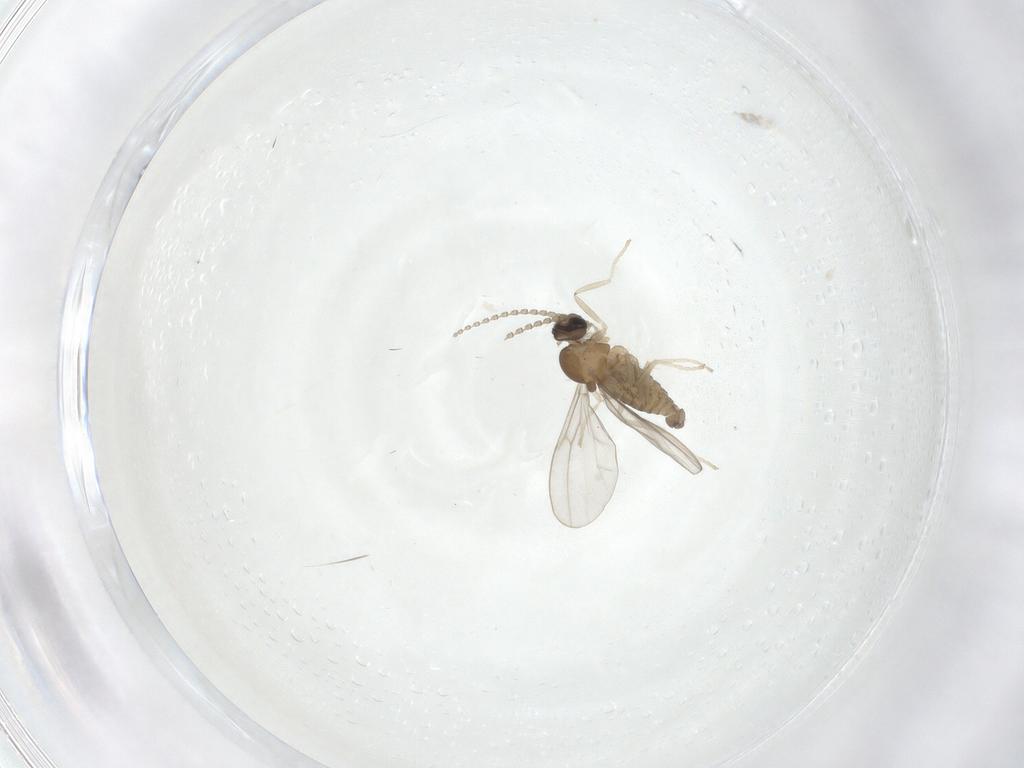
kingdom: Animalia
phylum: Arthropoda
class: Insecta
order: Diptera
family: Cecidomyiidae
